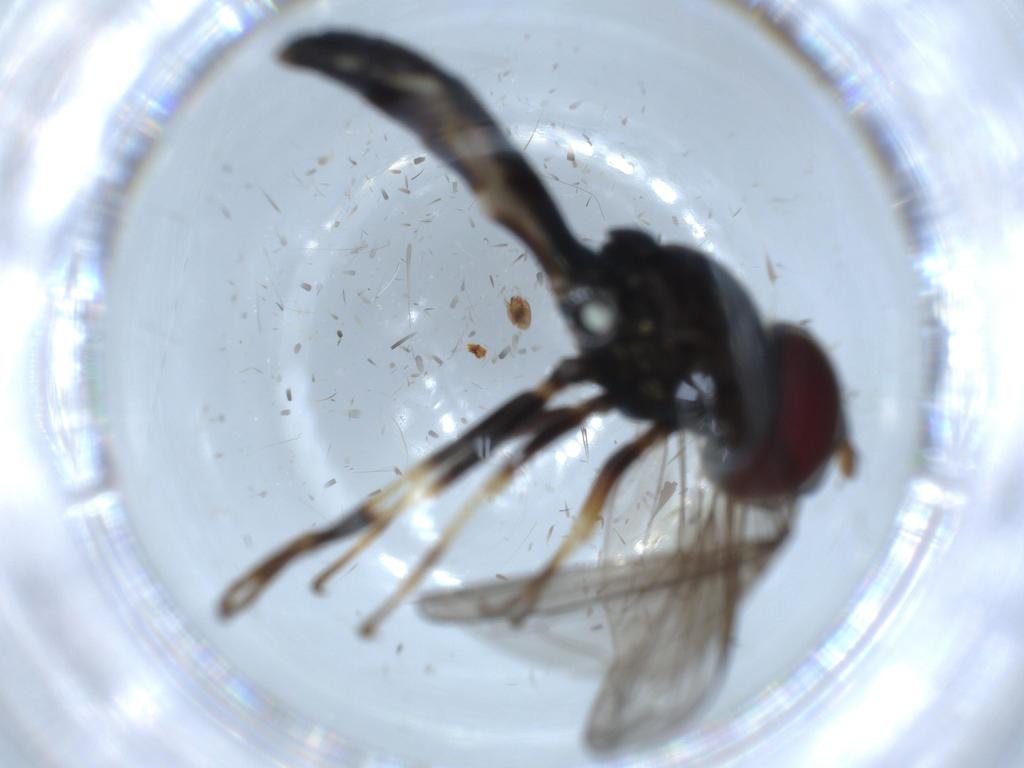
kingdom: Animalia
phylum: Arthropoda
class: Insecta
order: Diptera
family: Syrphidae
